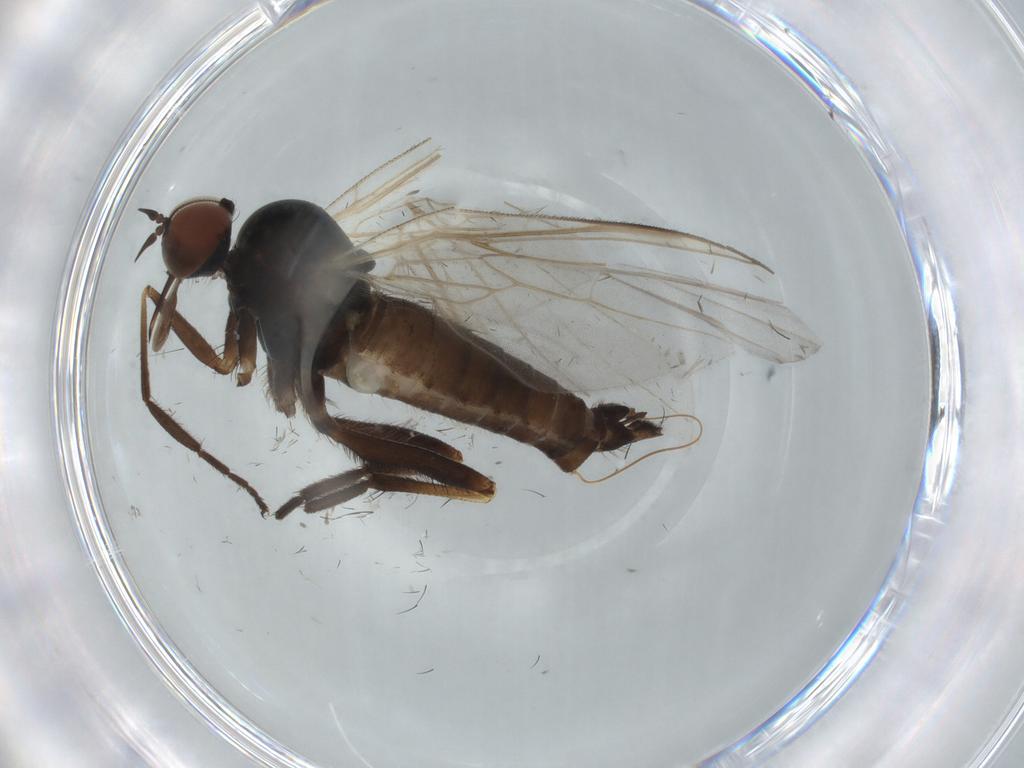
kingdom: Animalia
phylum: Arthropoda
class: Insecta
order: Diptera
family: Empididae
